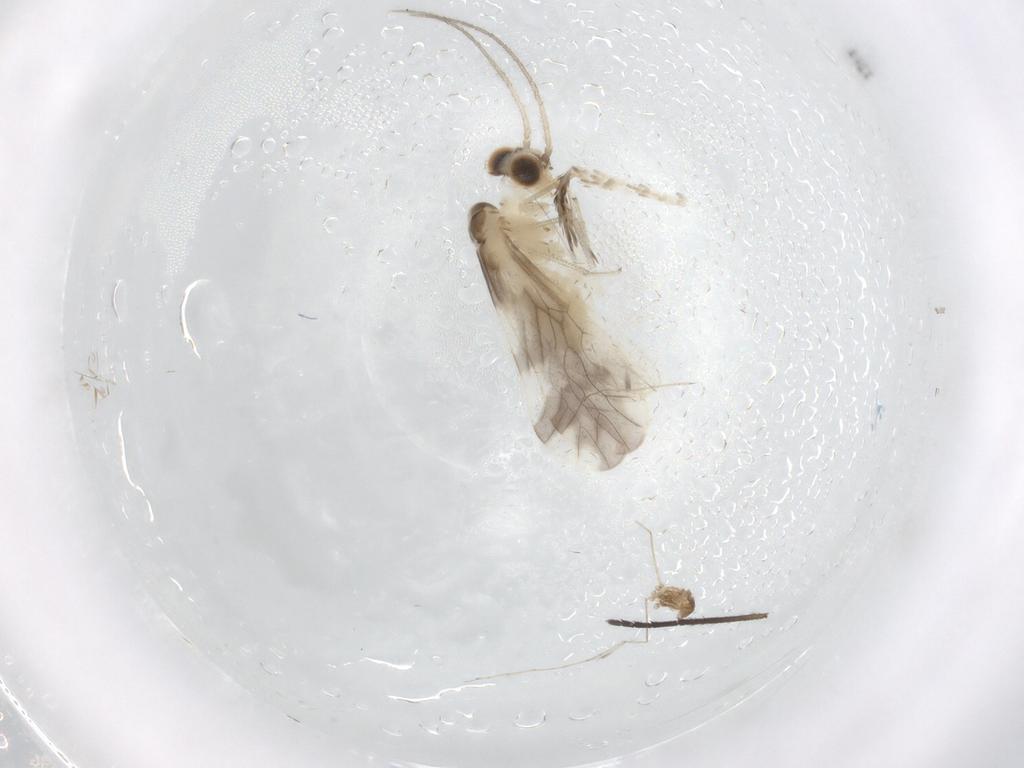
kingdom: Animalia
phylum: Arthropoda
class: Insecta
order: Psocodea
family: Caeciliusidae
